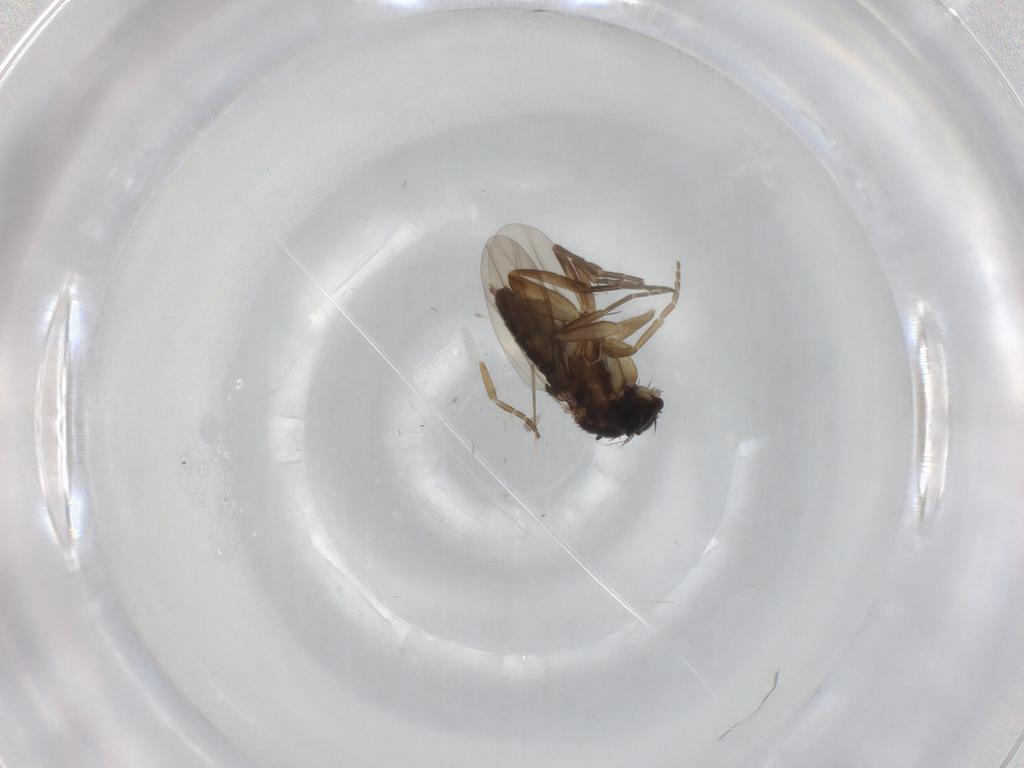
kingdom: Animalia
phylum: Arthropoda
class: Insecta
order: Diptera
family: Phoridae
